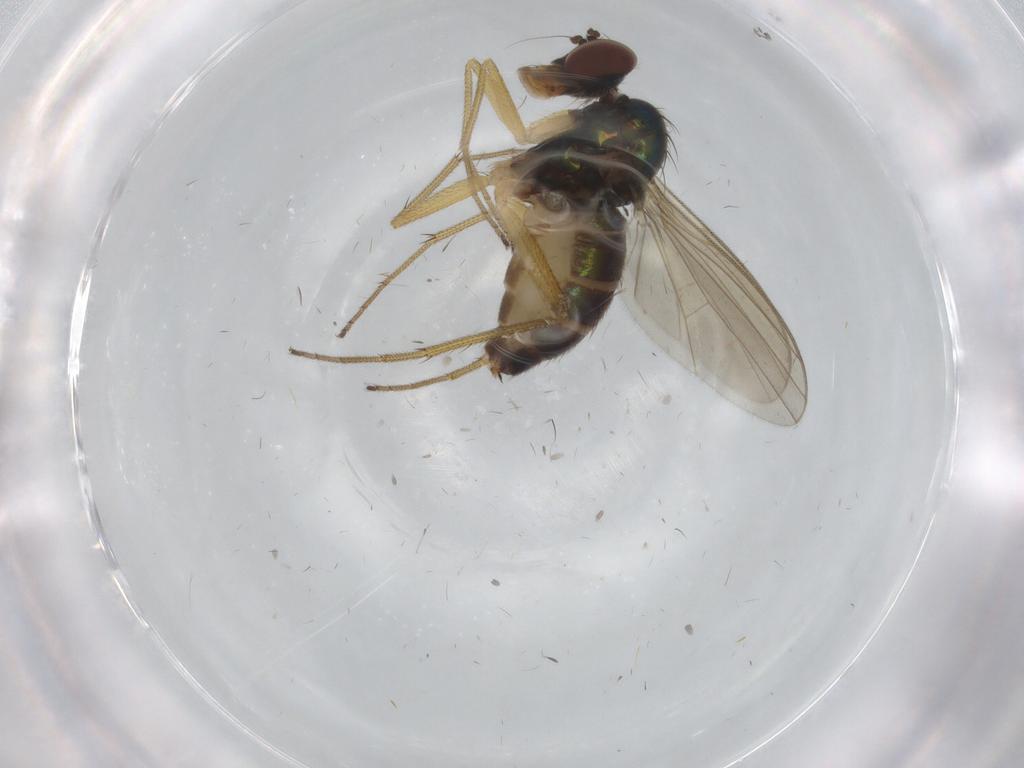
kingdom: Animalia
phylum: Arthropoda
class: Insecta
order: Diptera
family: Dolichopodidae
